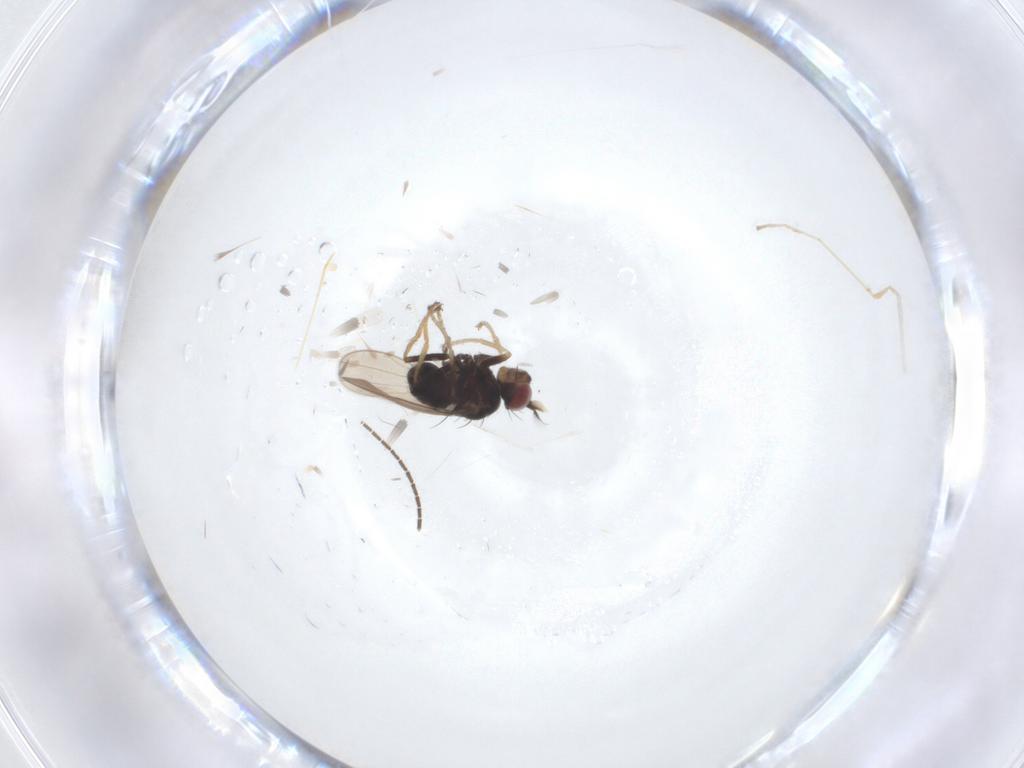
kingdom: Animalia
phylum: Arthropoda
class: Insecta
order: Diptera
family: Ephydridae
